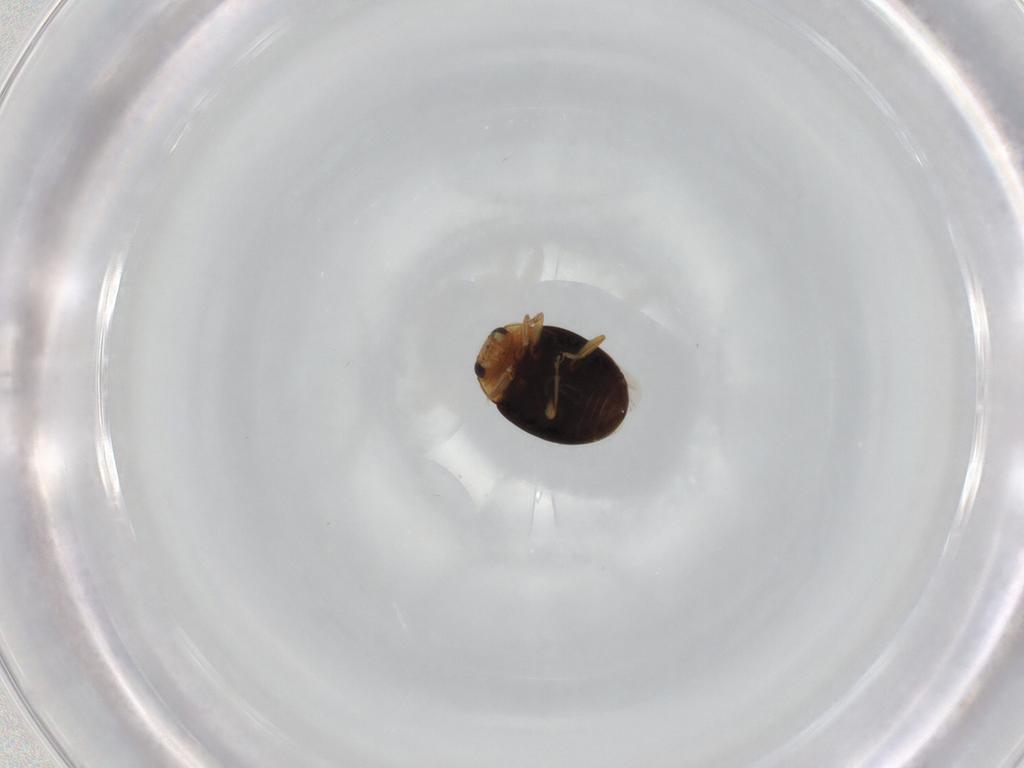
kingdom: Animalia
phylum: Arthropoda
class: Insecta
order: Coleoptera
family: Coccinellidae
